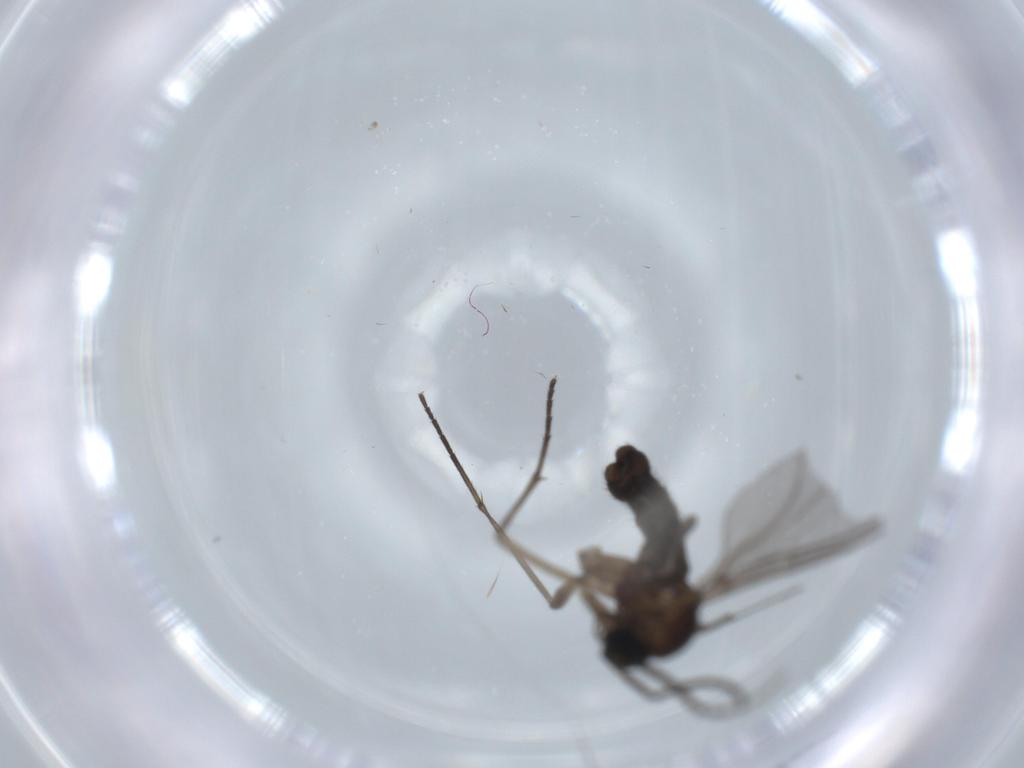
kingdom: Animalia
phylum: Arthropoda
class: Insecta
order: Diptera
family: Sciaridae
